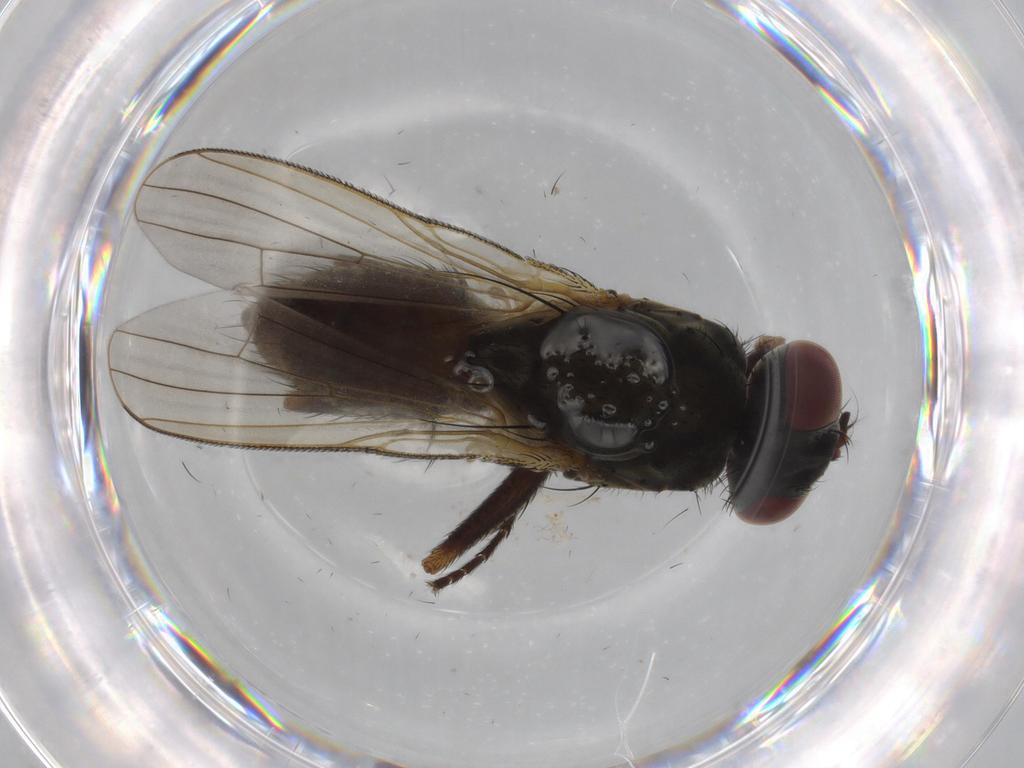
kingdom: Animalia
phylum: Arthropoda
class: Insecta
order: Diptera
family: Muscidae
